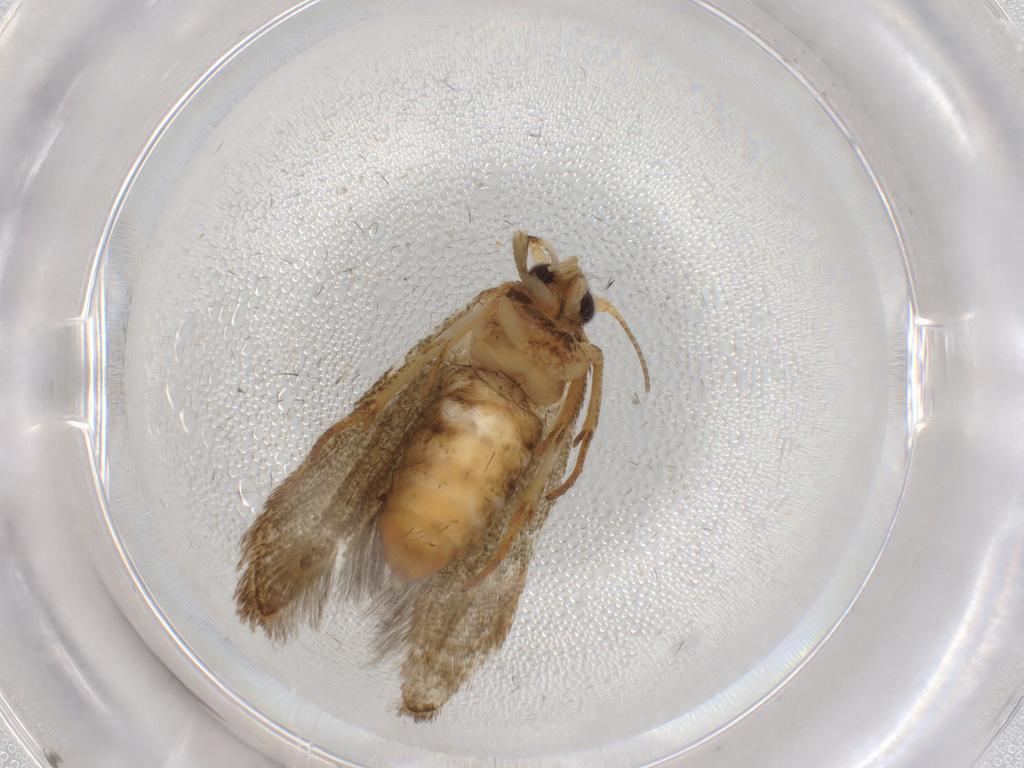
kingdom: Animalia
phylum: Arthropoda
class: Insecta
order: Lepidoptera
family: Blastobasidae
